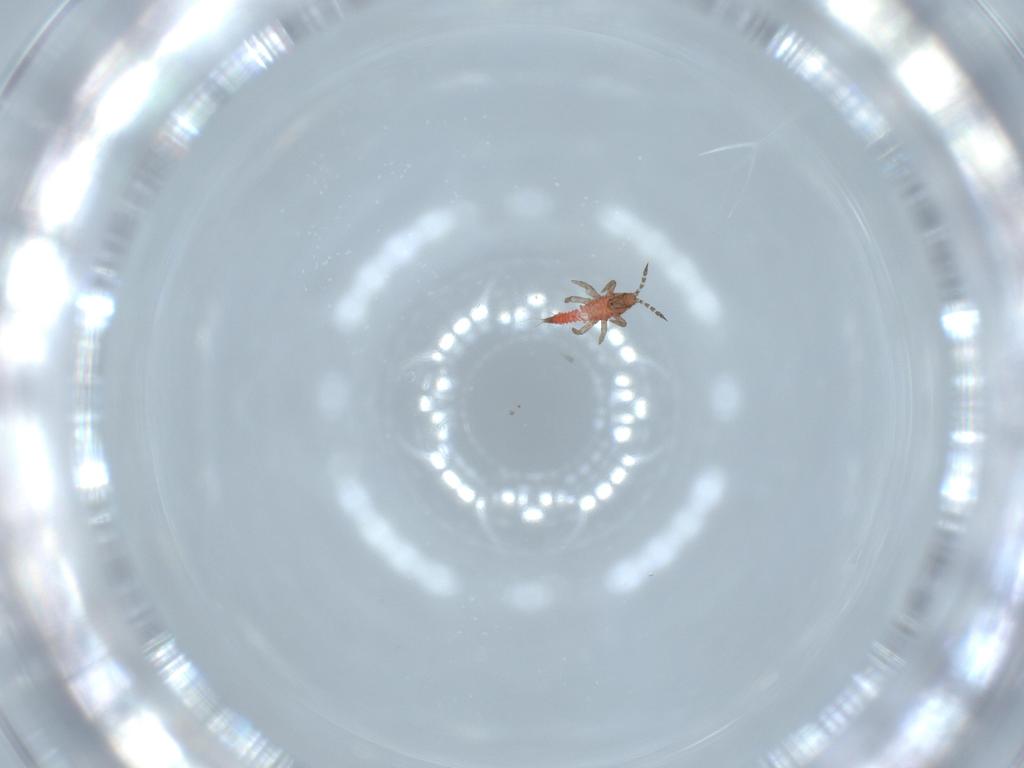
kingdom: Animalia
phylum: Arthropoda
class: Insecta
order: Thysanoptera
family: Phlaeothripidae
